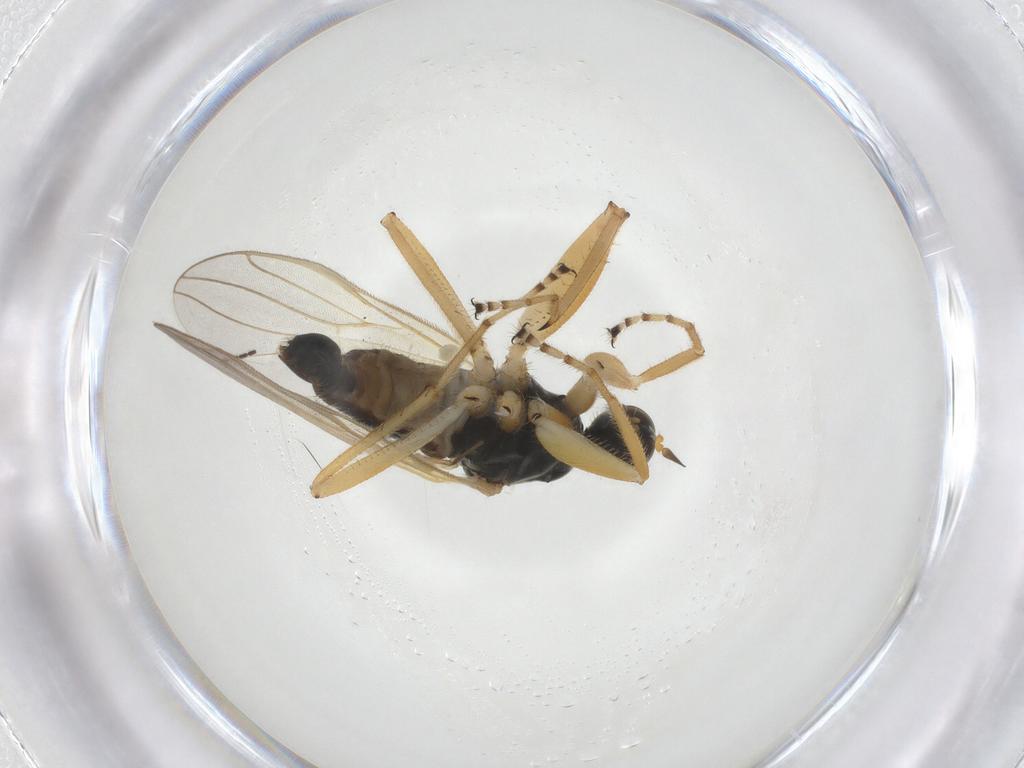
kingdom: Animalia
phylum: Arthropoda
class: Insecta
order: Diptera
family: Hybotidae
